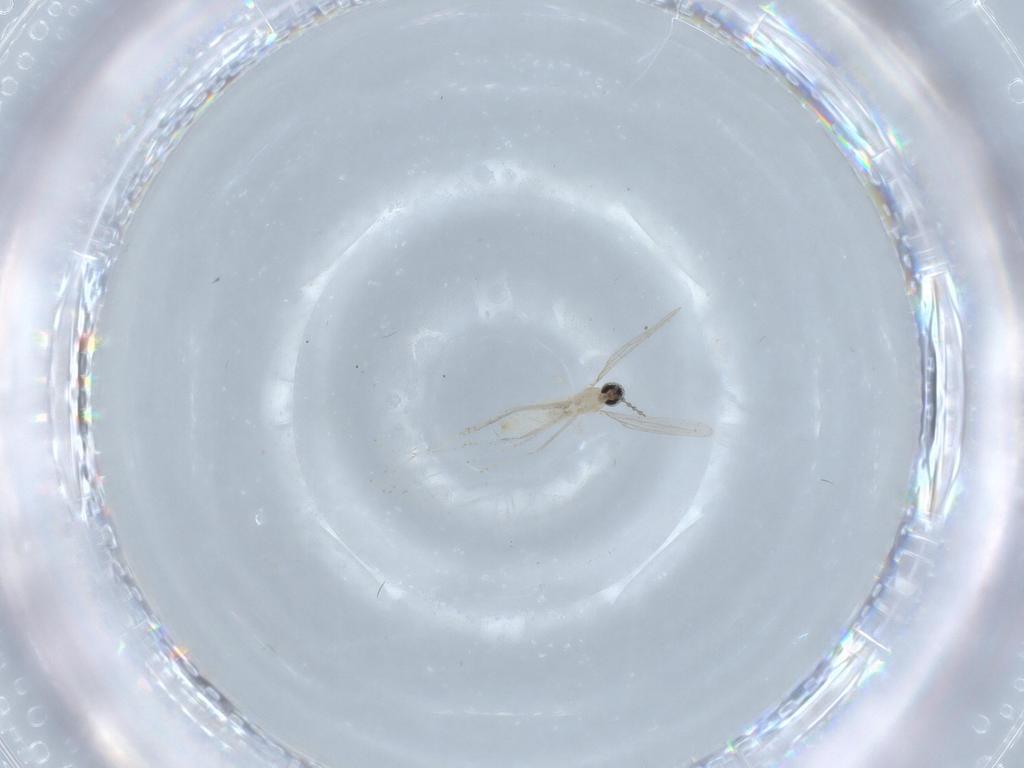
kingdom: Animalia
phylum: Arthropoda
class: Insecta
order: Diptera
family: Cecidomyiidae
